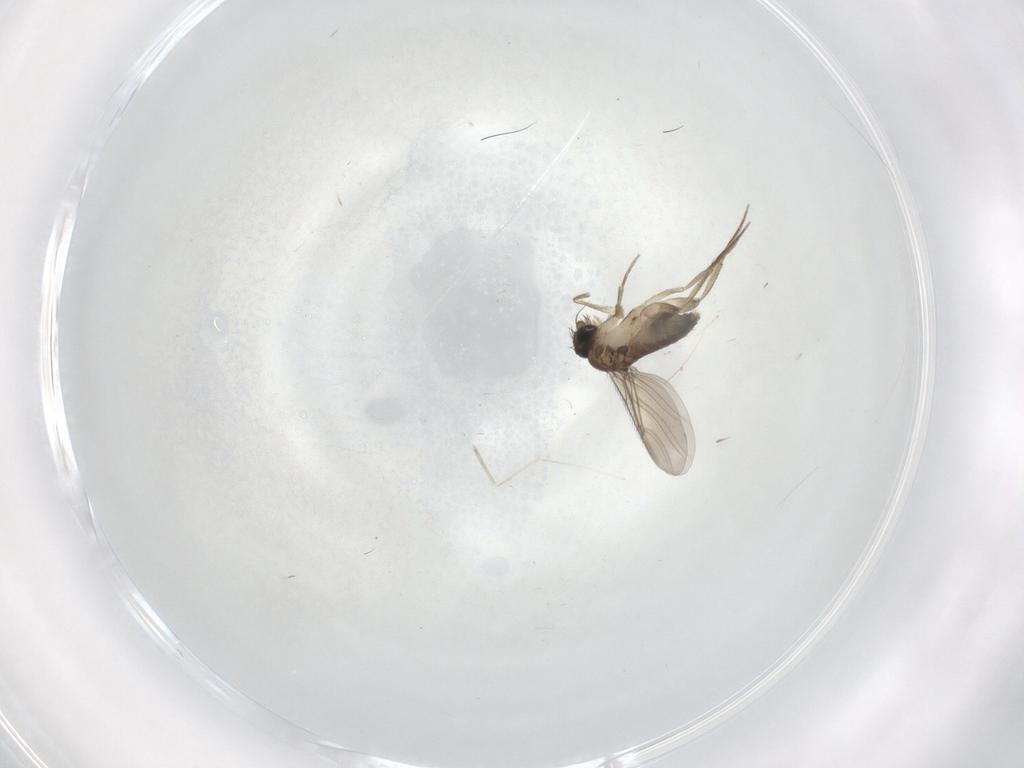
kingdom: Animalia
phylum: Arthropoda
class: Insecta
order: Diptera
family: Phoridae
